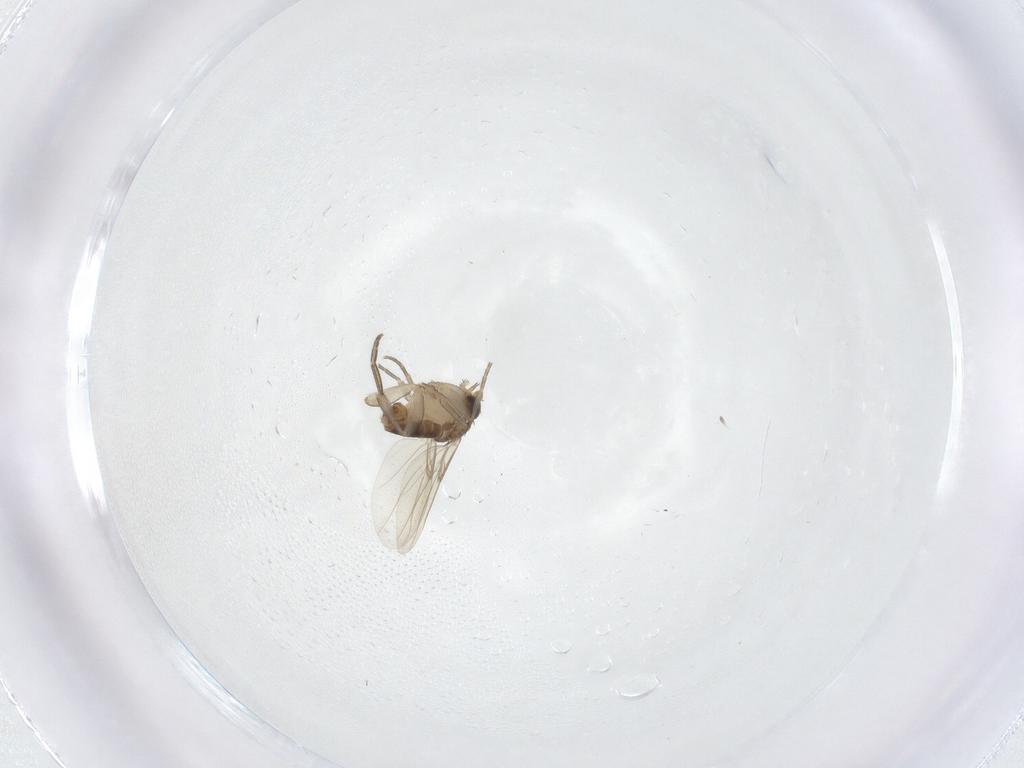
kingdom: Animalia
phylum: Arthropoda
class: Insecta
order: Diptera
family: Phoridae
